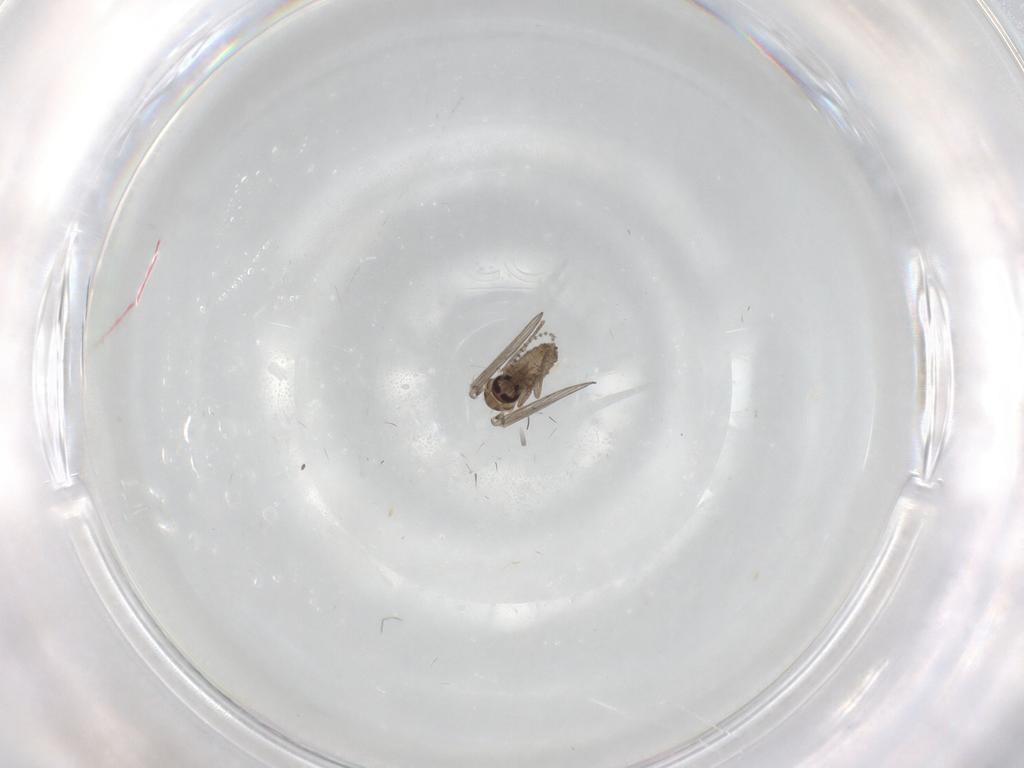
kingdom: Animalia
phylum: Arthropoda
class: Insecta
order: Diptera
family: Psychodidae
